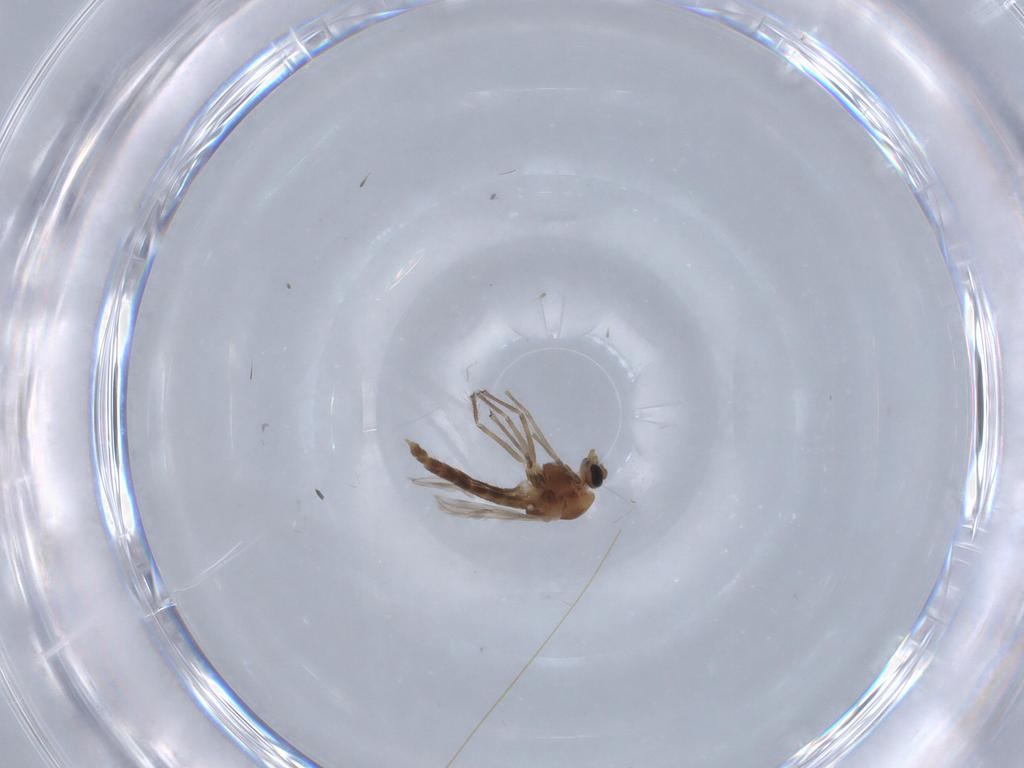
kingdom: Animalia
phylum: Arthropoda
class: Insecta
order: Diptera
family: Chironomidae
